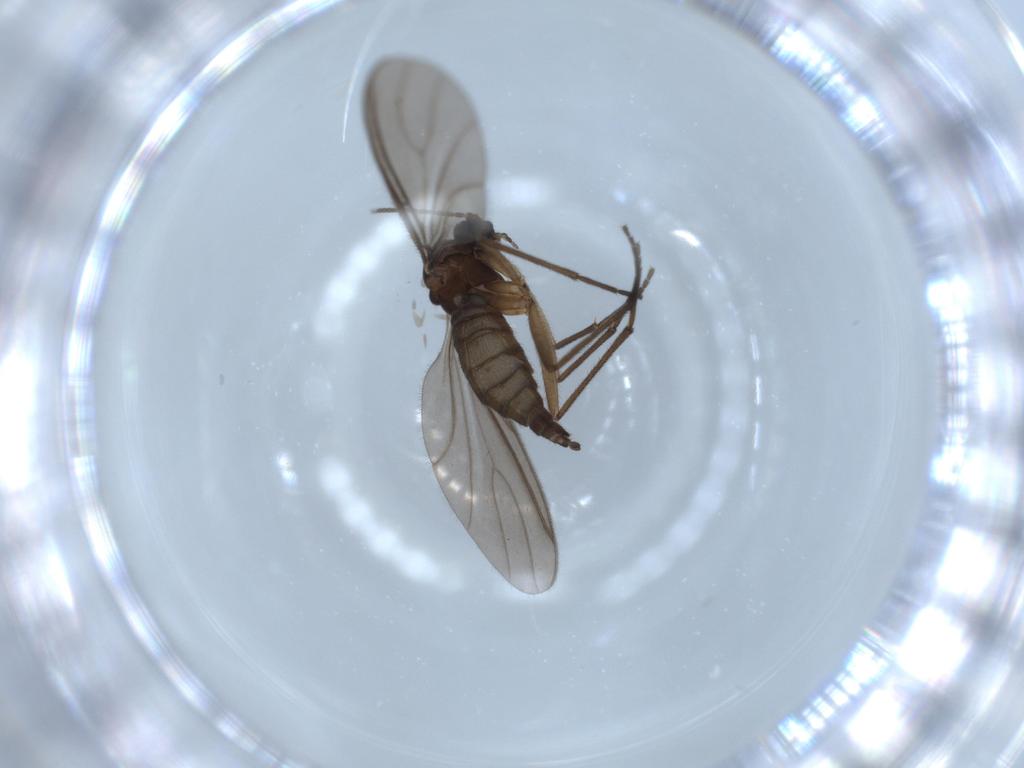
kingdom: Animalia
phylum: Arthropoda
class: Insecta
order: Diptera
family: Sciaridae
